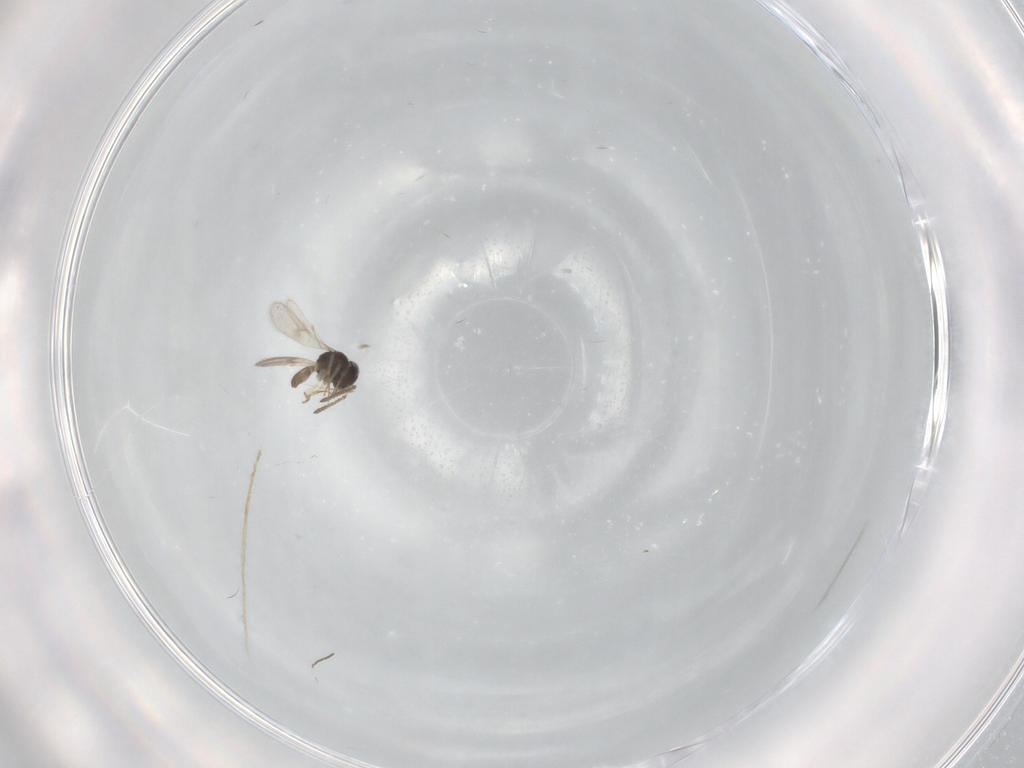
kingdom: Animalia
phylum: Arthropoda
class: Insecta
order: Hymenoptera
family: Scelionidae
